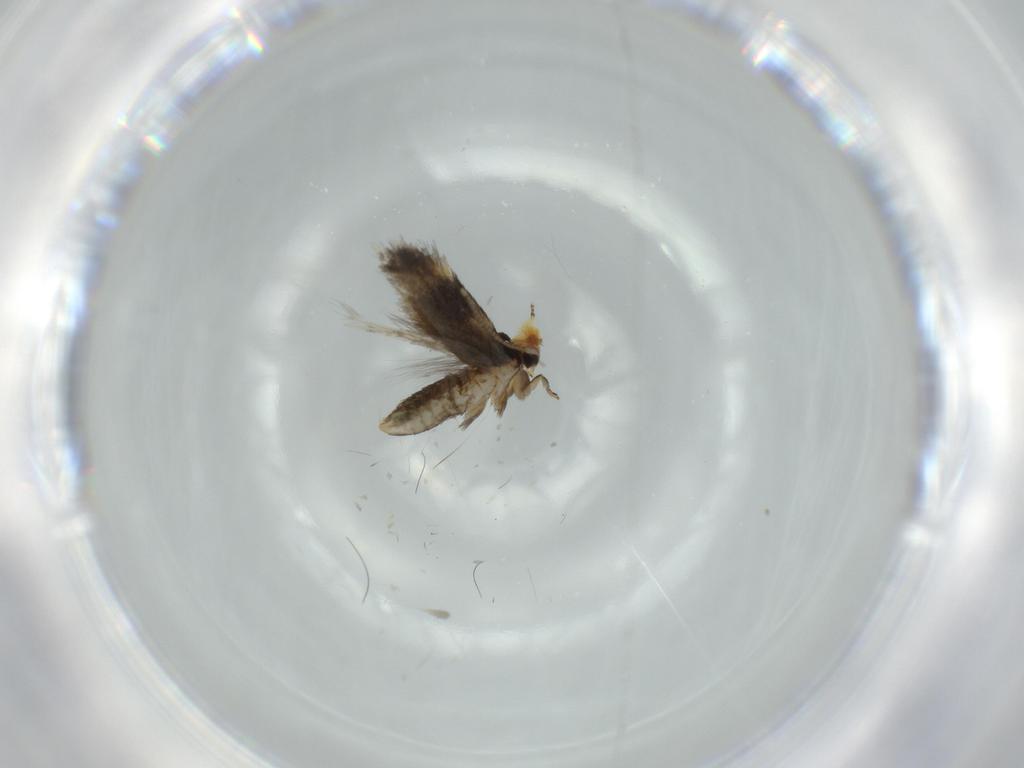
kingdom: Animalia
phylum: Arthropoda
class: Insecta
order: Lepidoptera
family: Nepticulidae
